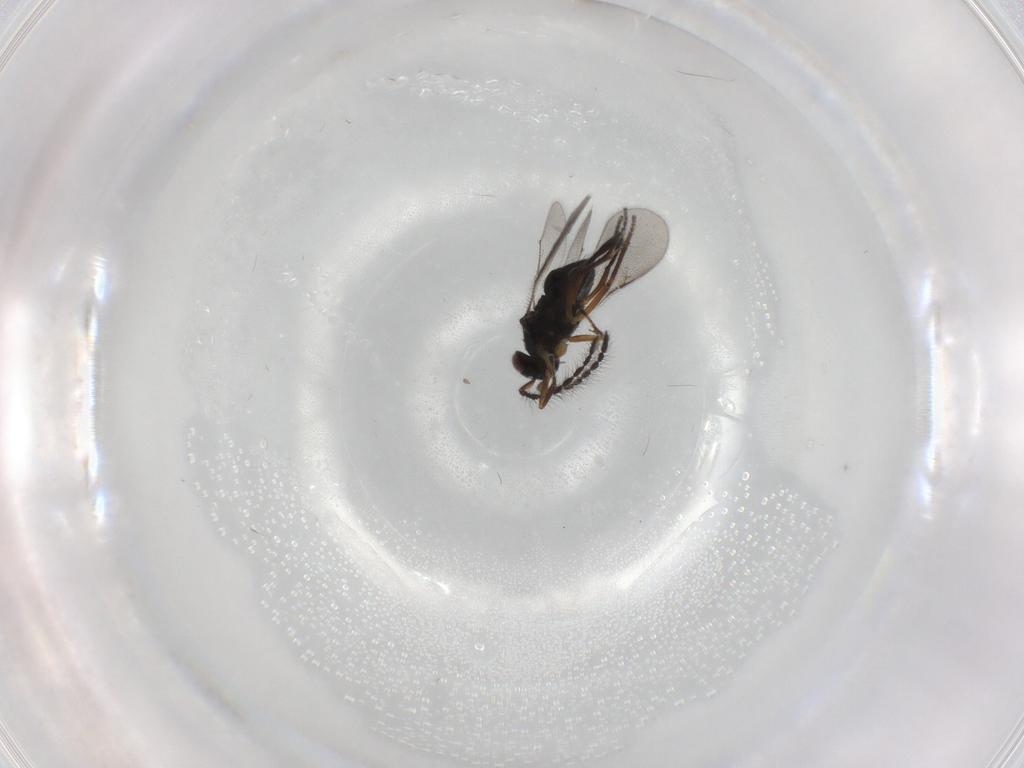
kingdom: Animalia
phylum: Arthropoda
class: Insecta
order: Hymenoptera
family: Encyrtidae
